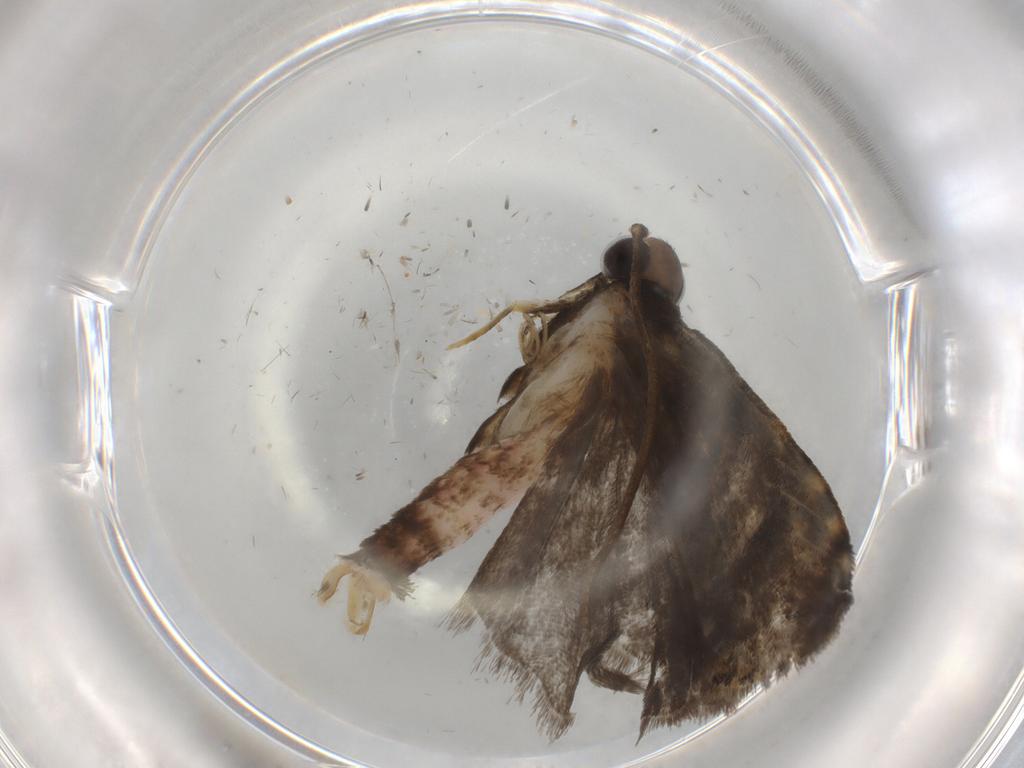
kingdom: Animalia
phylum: Arthropoda
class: Insecta
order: Lepidoptera
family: Cosmopterigidae
